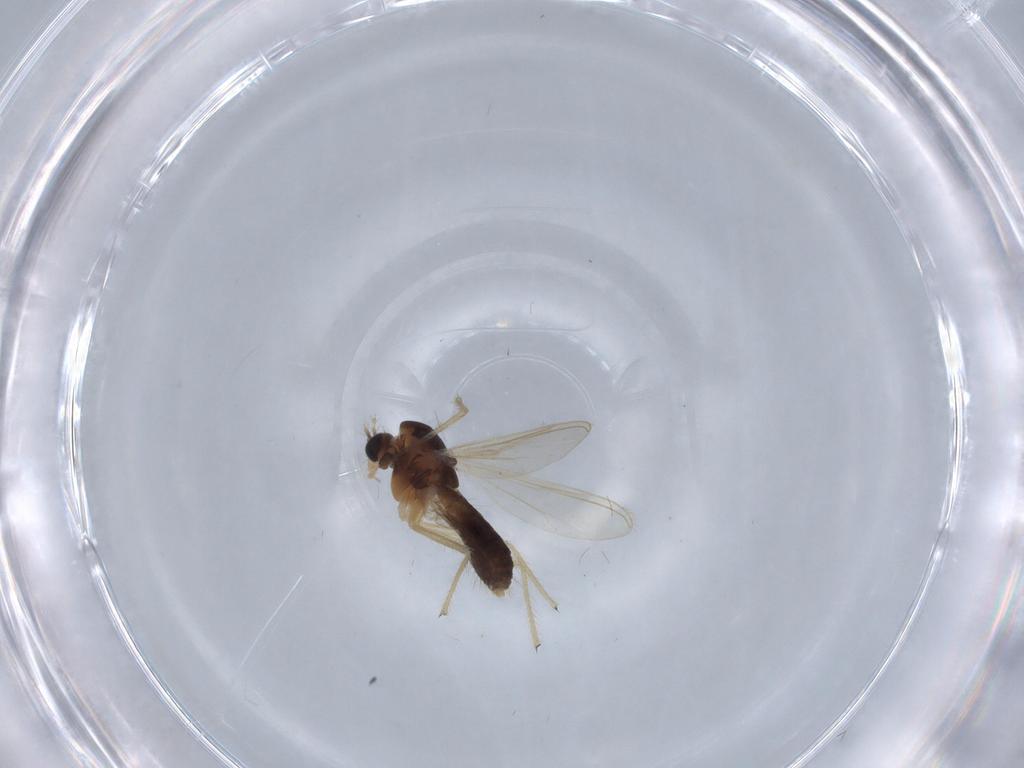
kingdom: Animalia
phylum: Arthropoda
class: Insecta
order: Diptera
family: Chironomidae
